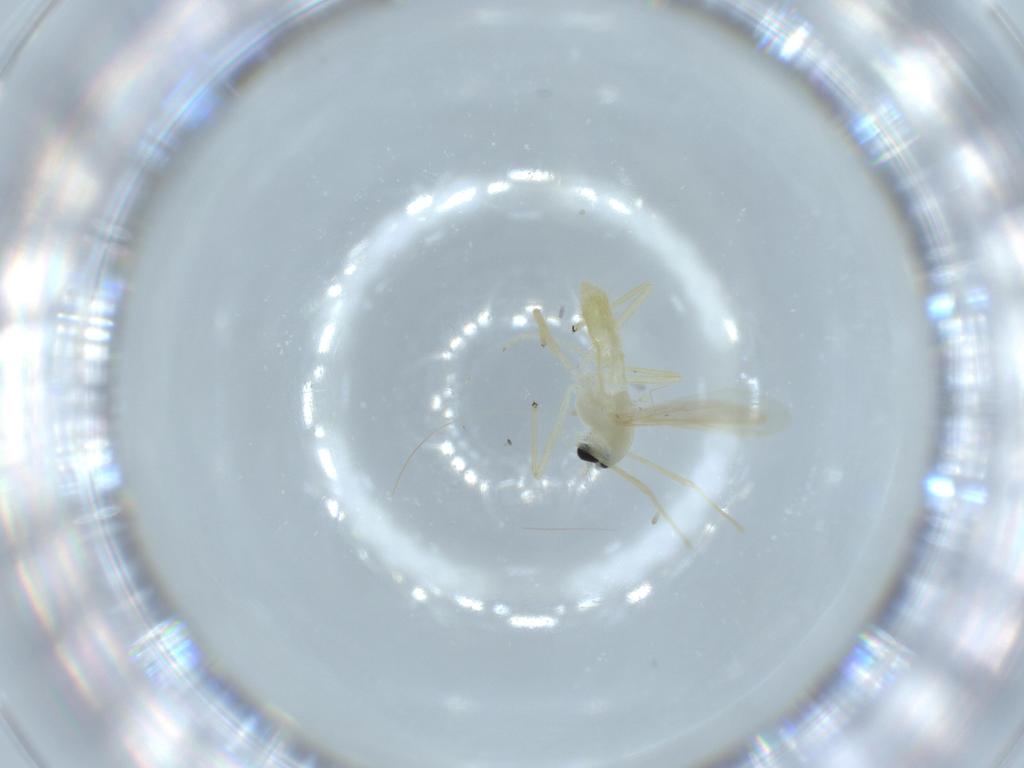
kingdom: Animalia
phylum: Arthropoda
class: Insecta
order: Diptera
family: Chironomidae
